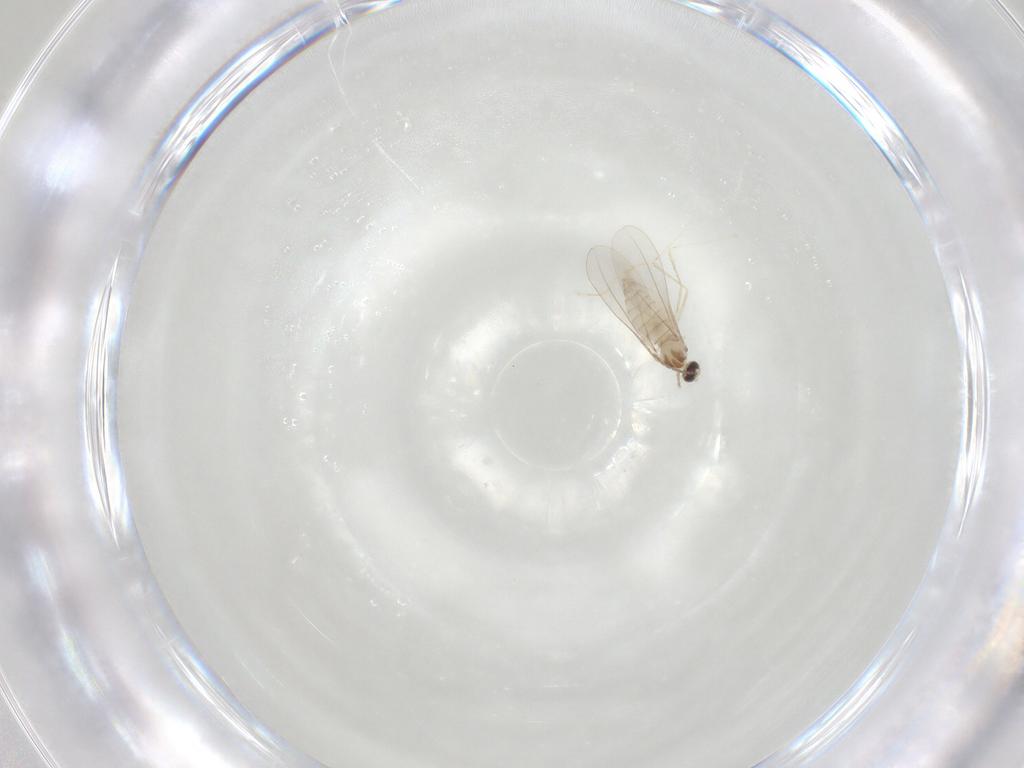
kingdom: Animalia
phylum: Arthropoda
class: Insecta
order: Diptera
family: Cecidomyiidae
